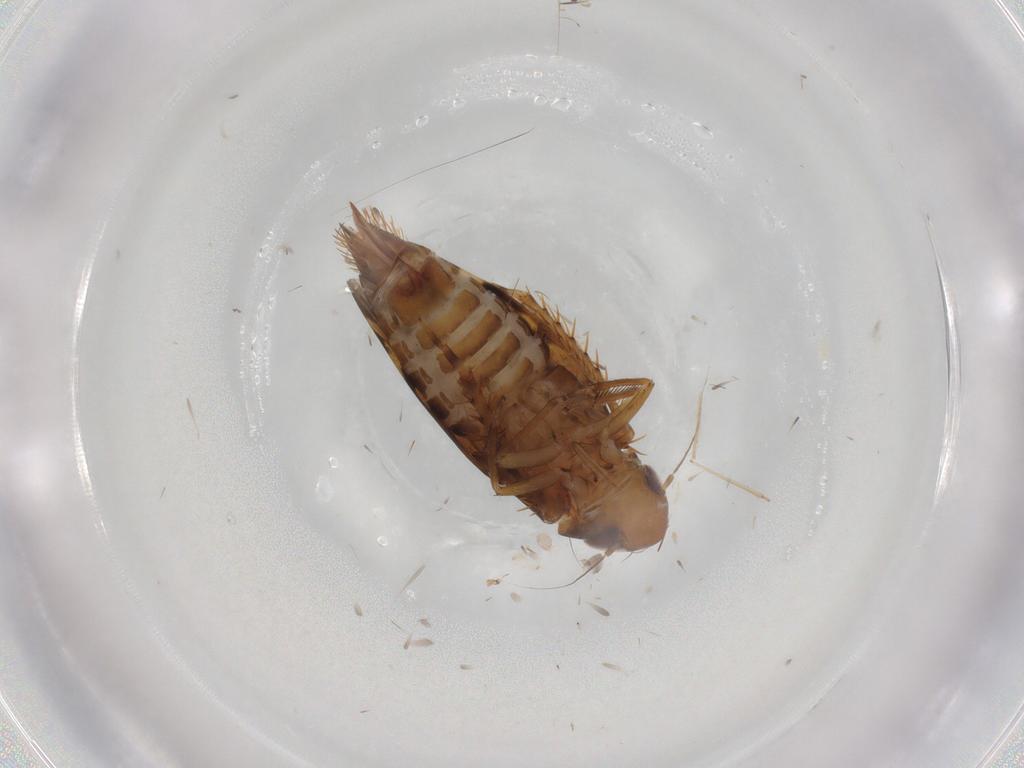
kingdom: Animalia
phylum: Arthropoda
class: Insecta
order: Hemiptera
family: Cicadellidae
